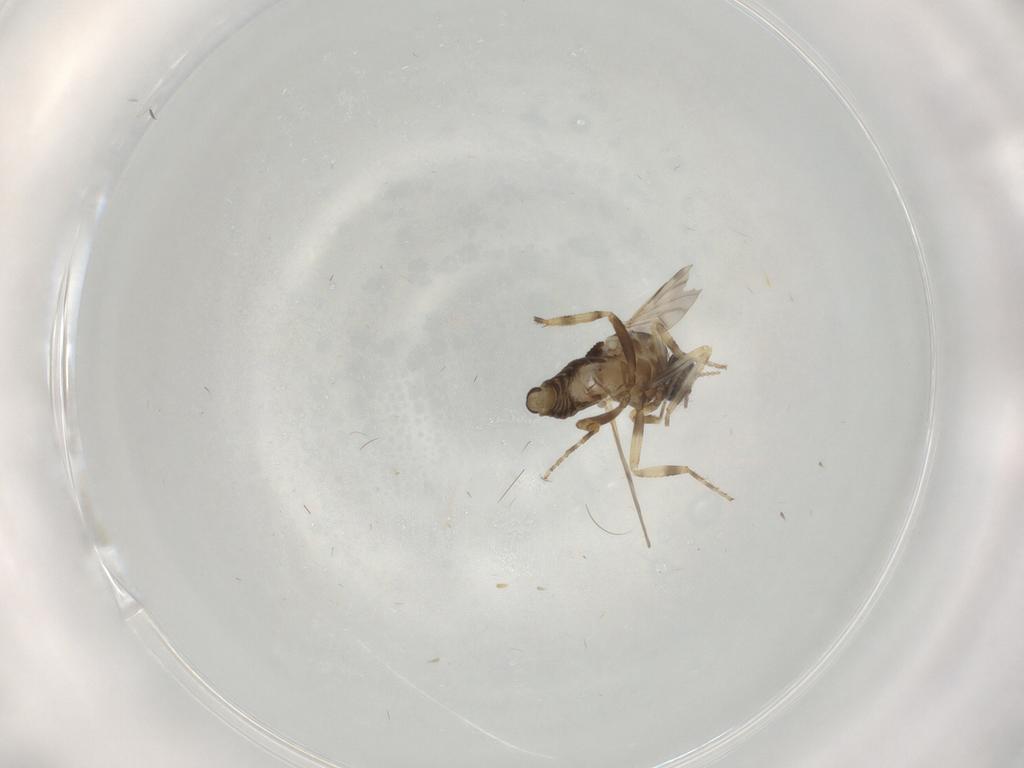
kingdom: Animalia
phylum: Arthropoda
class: Insecta
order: Diptera
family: Ceratopogonidae
